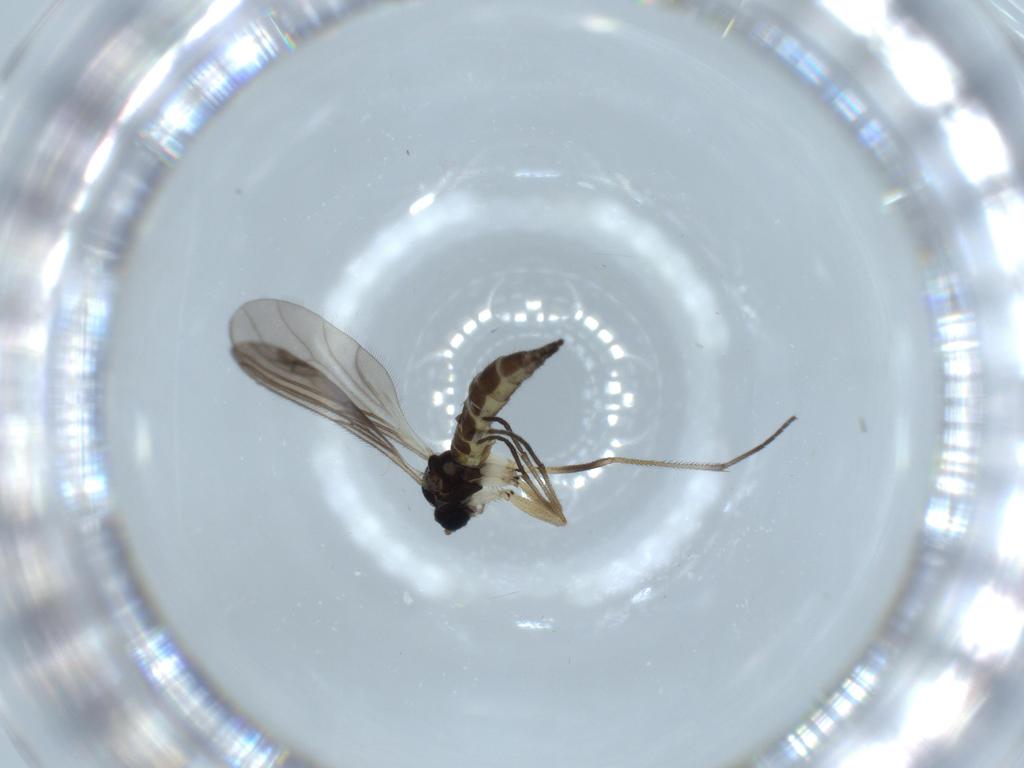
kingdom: Animalia
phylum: Arthropoda
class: Insecta
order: Diptera
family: Sciaridae
